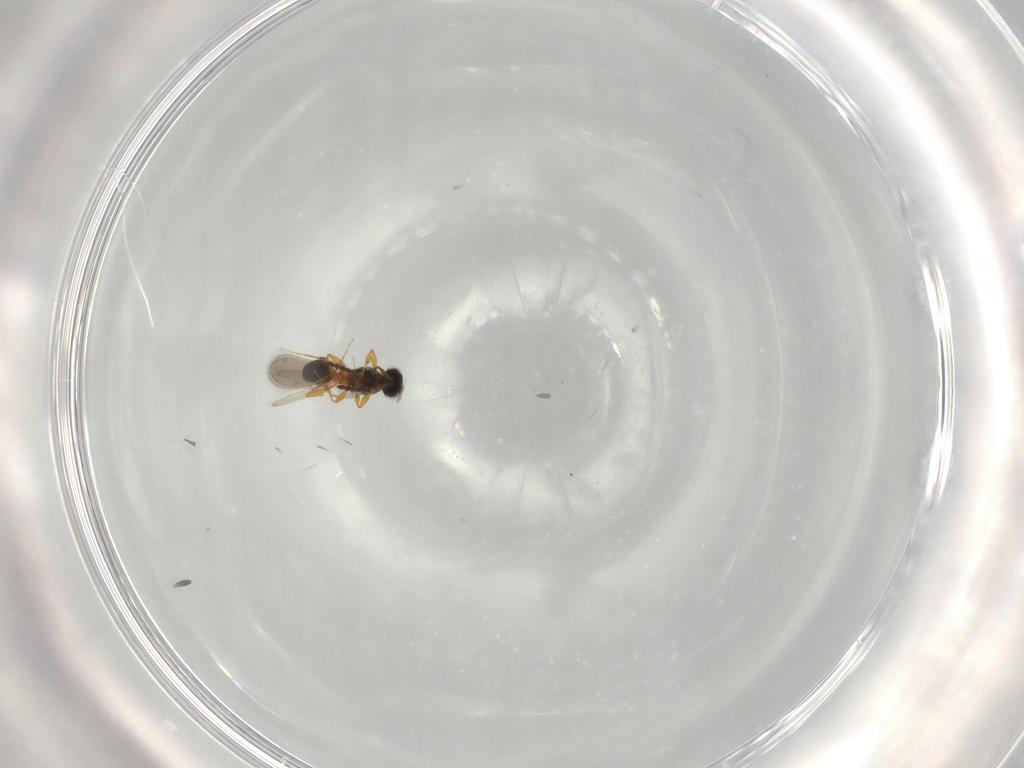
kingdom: Animalia
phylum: Arthropoda
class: Insecta
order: Hymenoptera
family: Platygastridae
